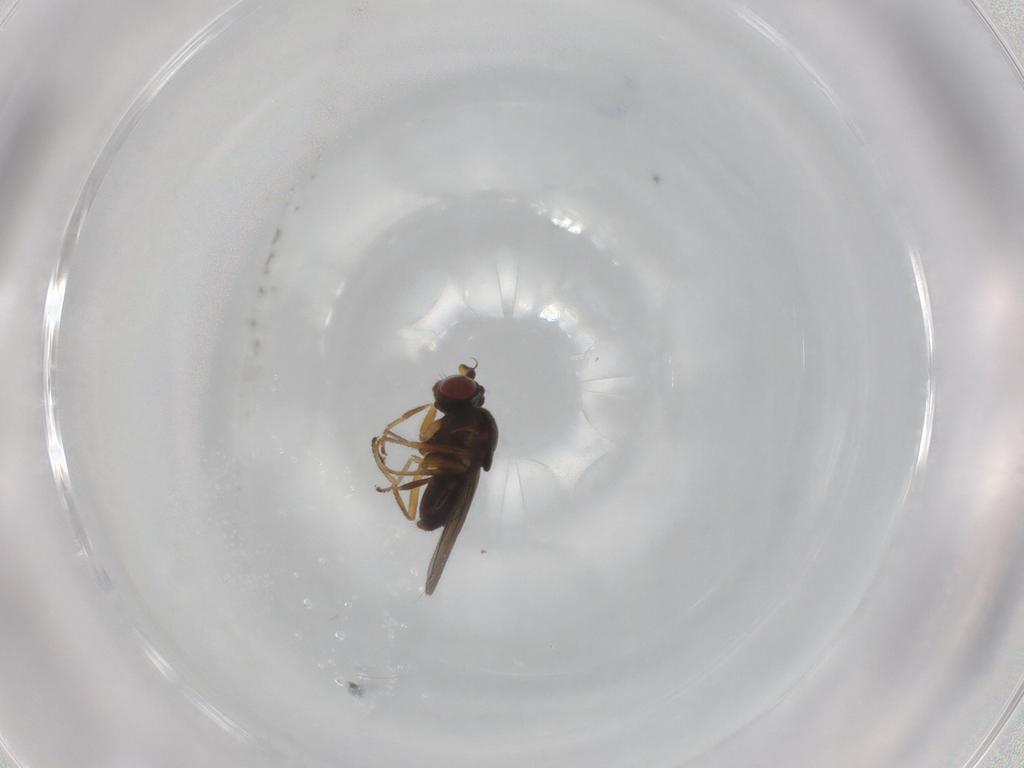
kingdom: Animalia
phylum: Arthropoda
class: Insecta
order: Diptera
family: Ephydridae
